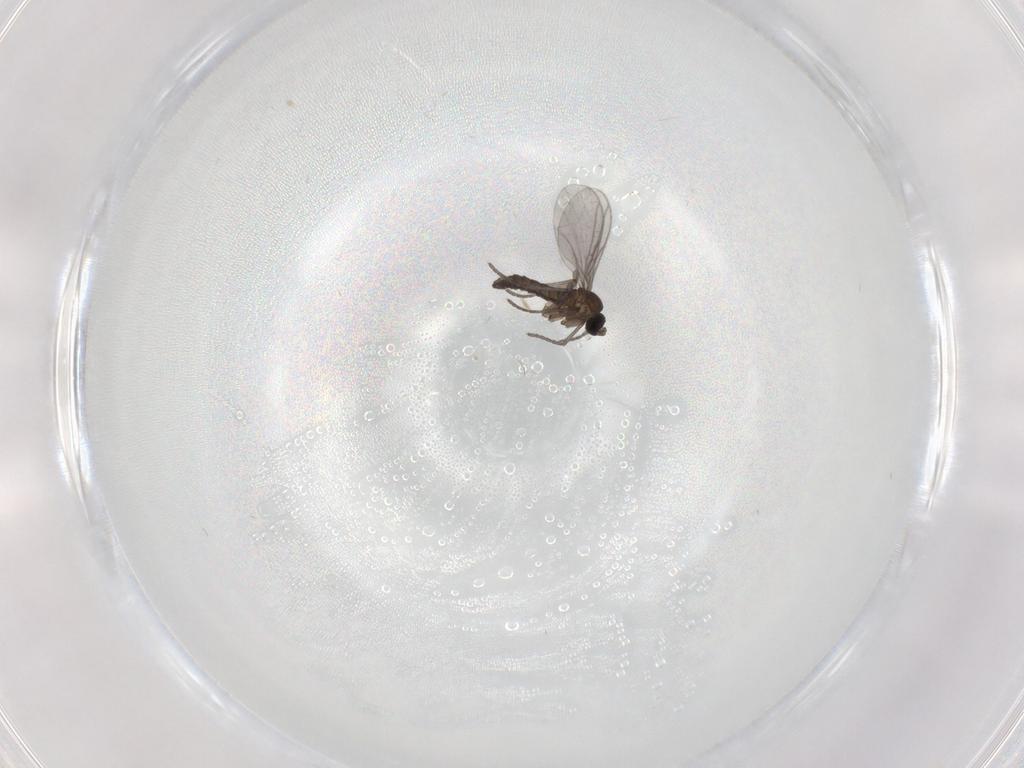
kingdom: Animalia
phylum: Arthropoda
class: Insecta
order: Diptera
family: Sciaridae
